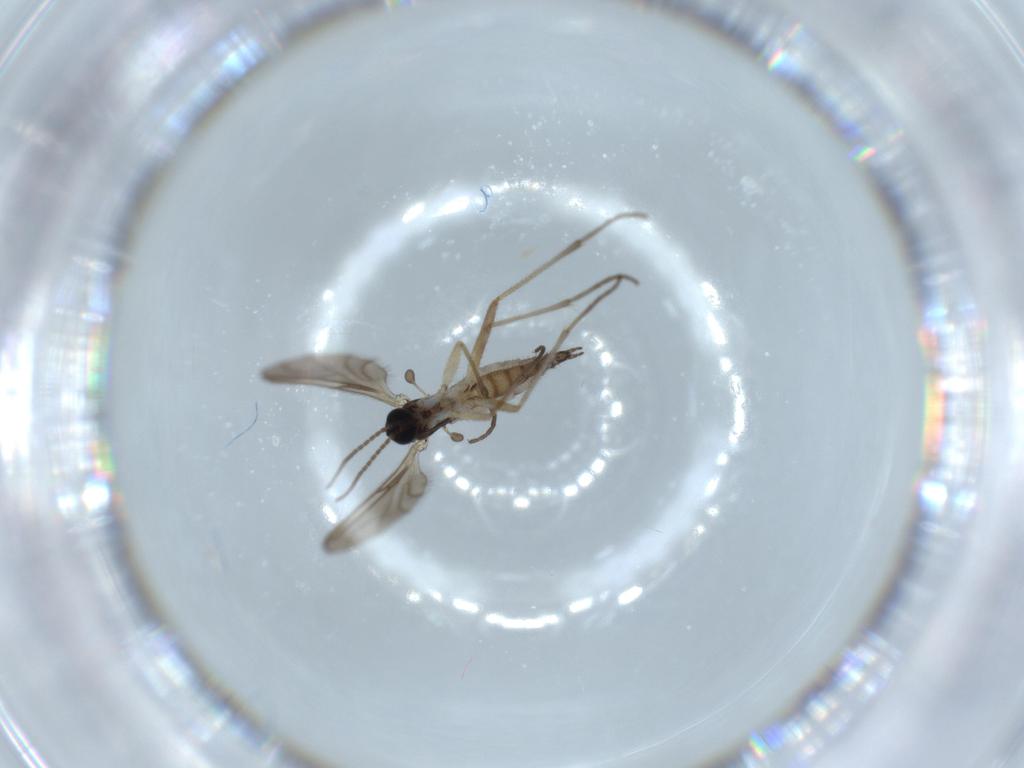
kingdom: Animalia
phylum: Arthropoda
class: Insecta
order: Diptera
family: Sciaridae
